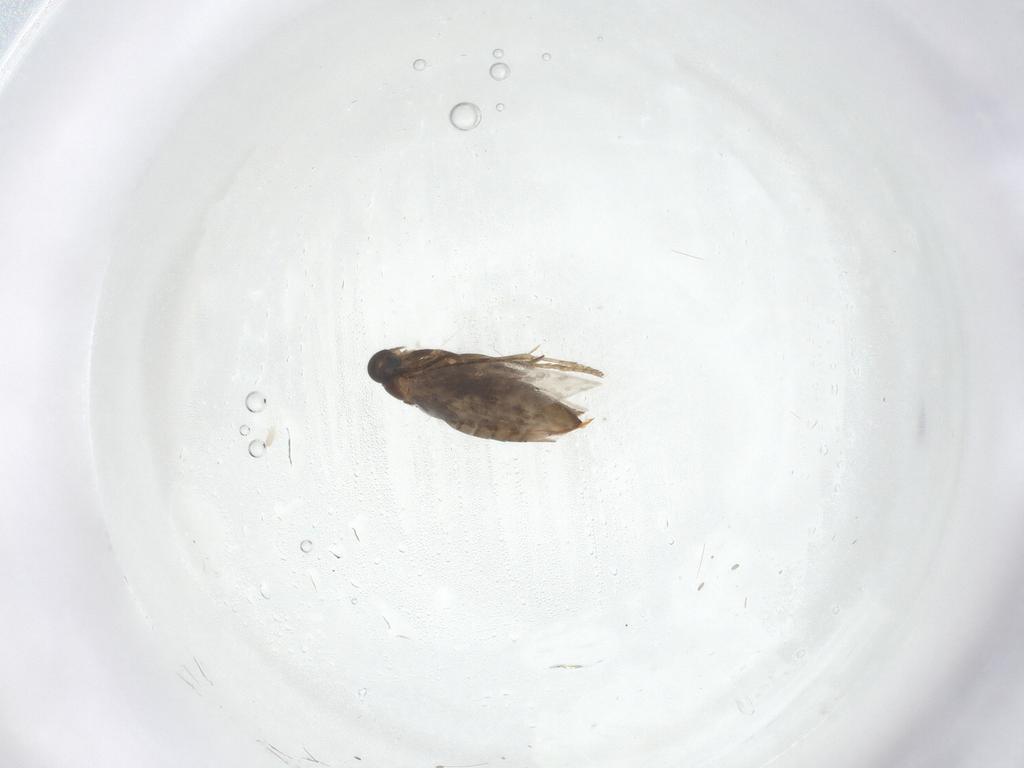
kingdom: Animalia
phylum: Arthropoda
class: Insecta
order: Lepidoptera
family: Heliozelidae
